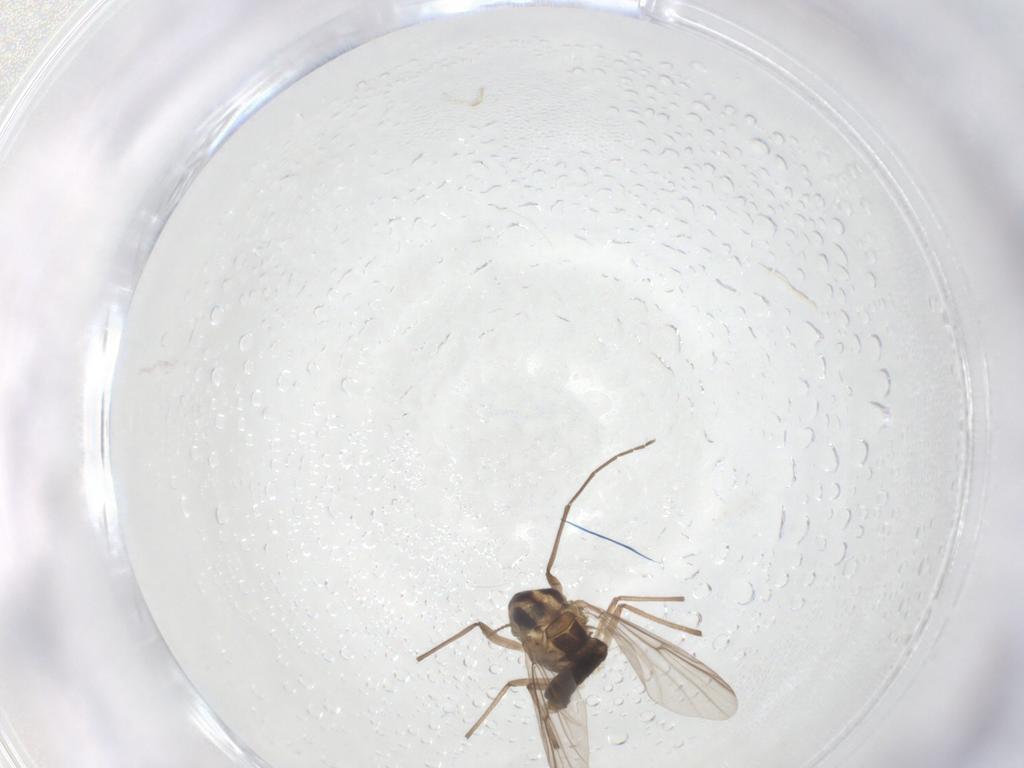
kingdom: Animalia
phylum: Arthropoda
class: Insecta
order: Diptera
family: Chironomidae
